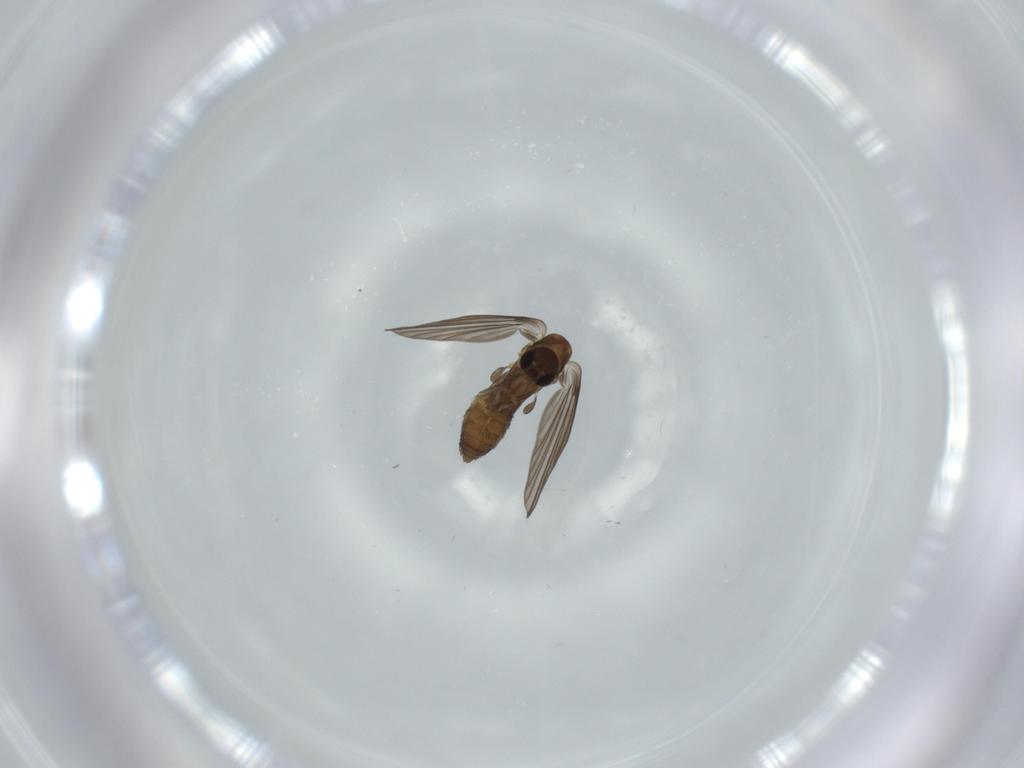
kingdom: Animalia
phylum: Arthropoda
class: Insecta
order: Diptera
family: Psychodidae
